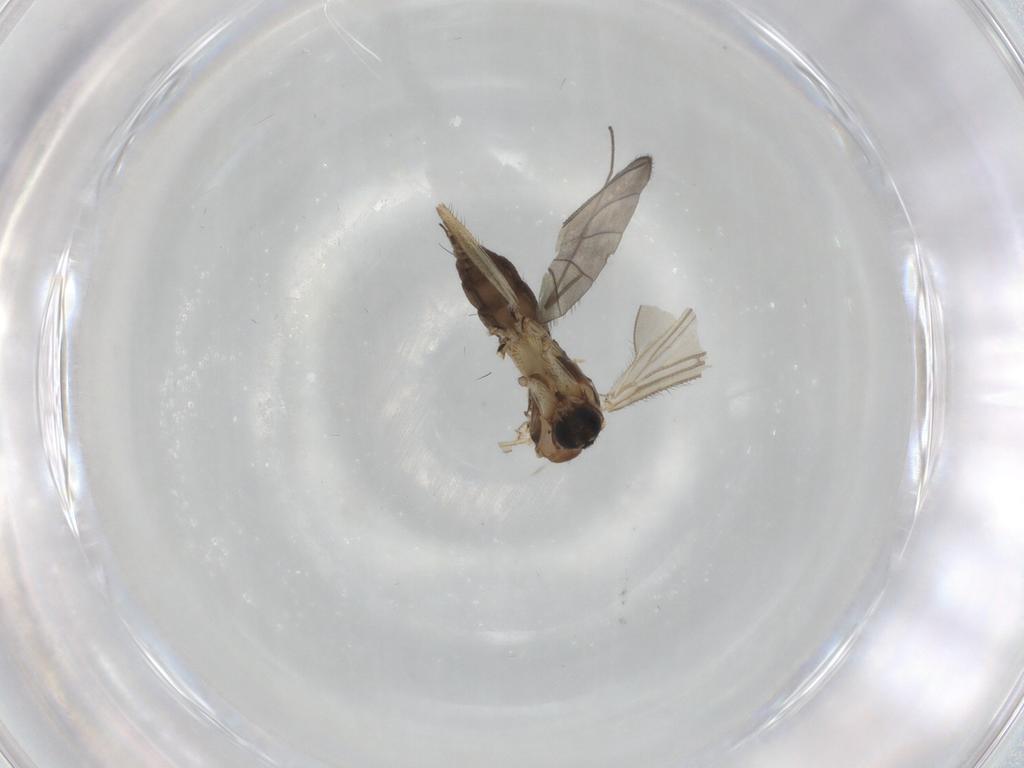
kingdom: Animalia
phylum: Arthropoda
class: Insecta
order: Diptera
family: Sciaridae
